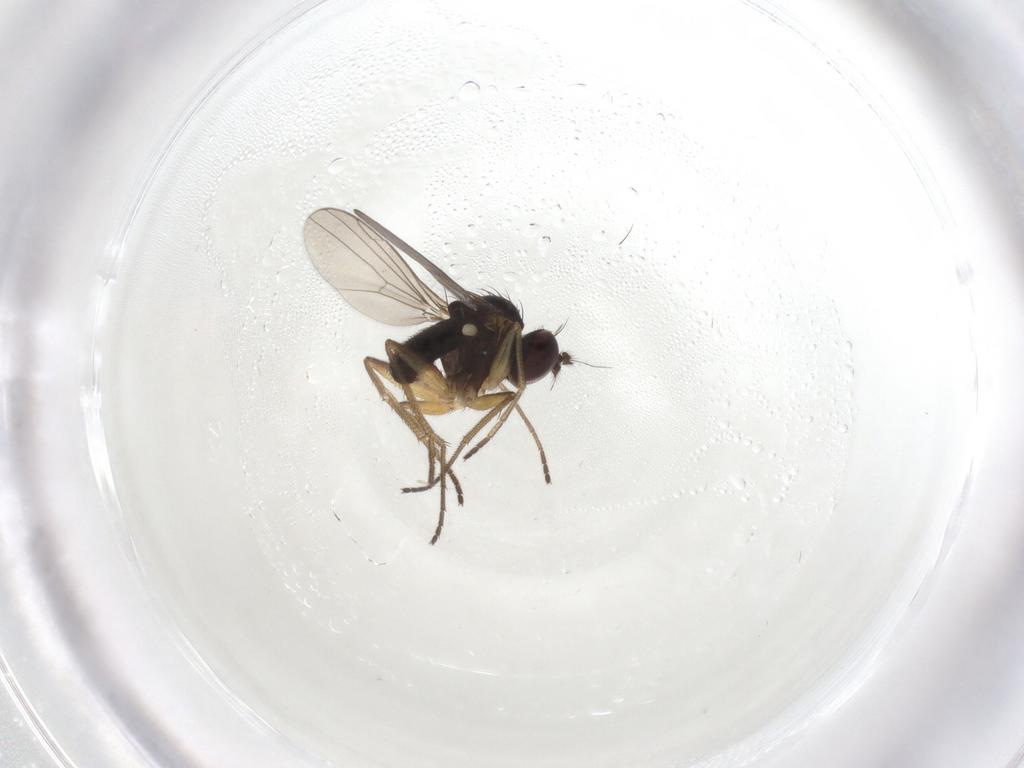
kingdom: Animalia
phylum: Arthropoda
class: Insecta
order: Diptera
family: Dolichopodidae
